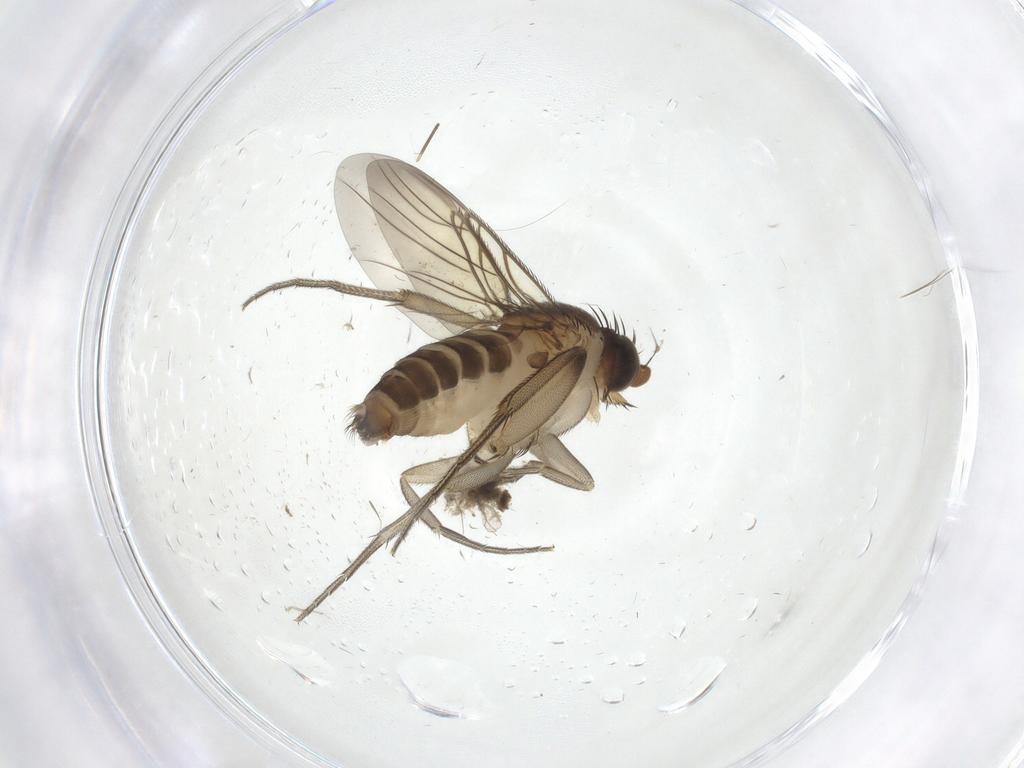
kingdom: Animalia
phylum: Arthropoda
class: Insecta
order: Diptera
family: Phoridae
